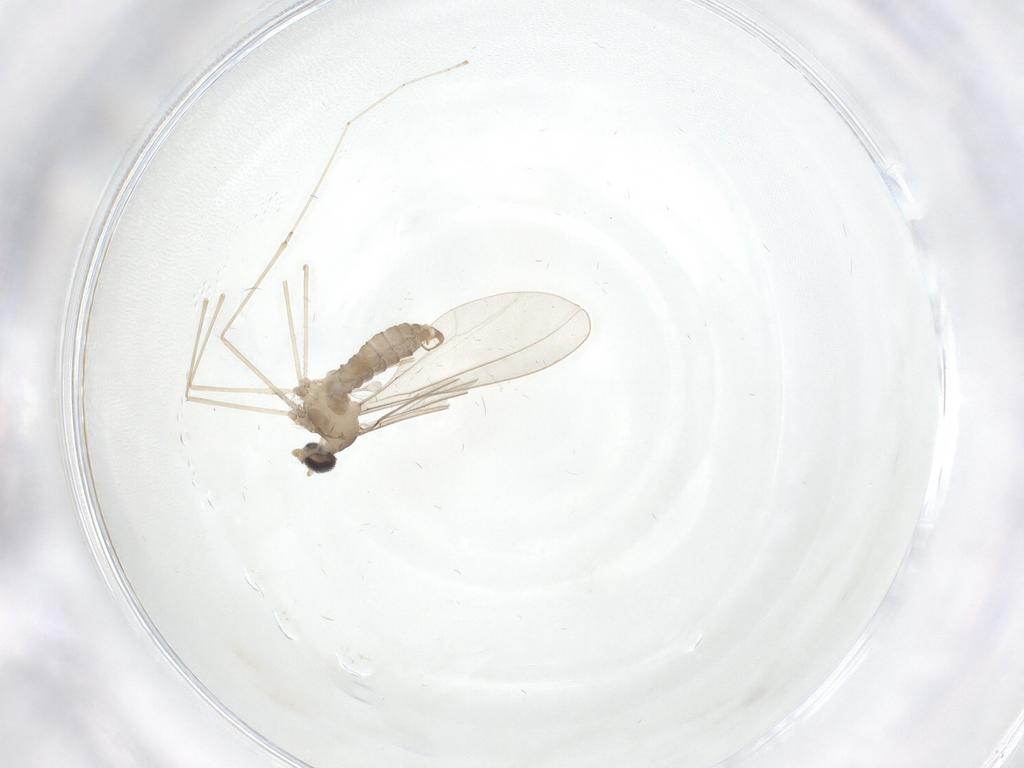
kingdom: Animalia
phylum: Arthropoda
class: Insecta
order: Diptera
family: Cecidomyiidae
